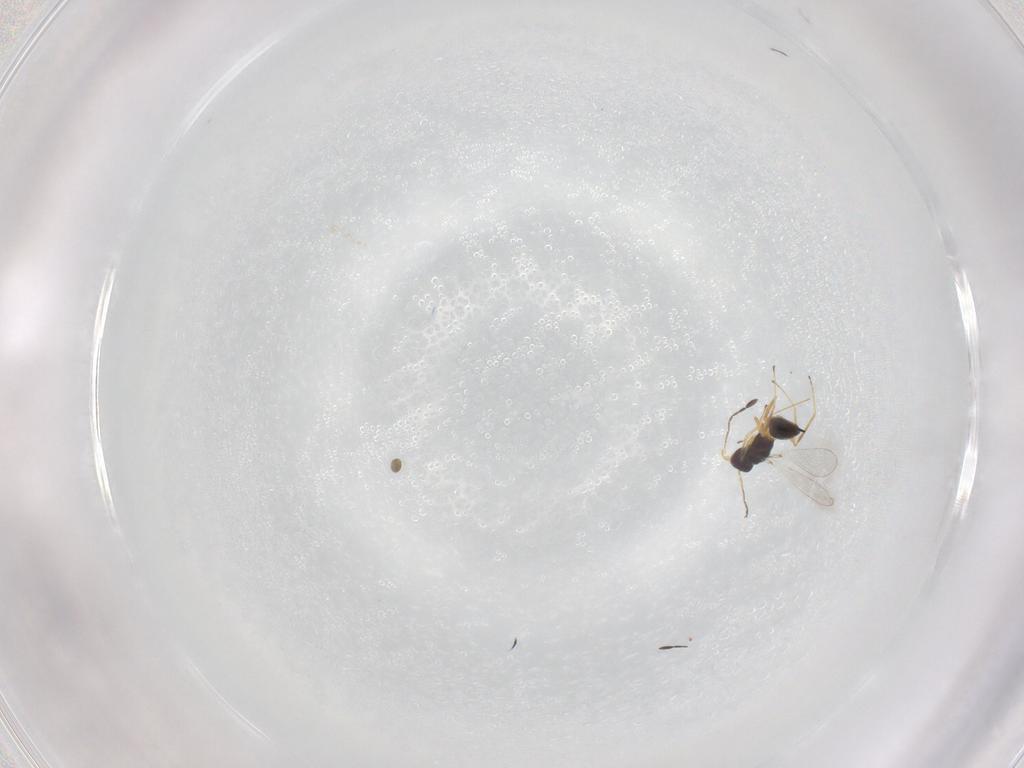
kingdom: Animalia
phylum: Arthropoda
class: Insecta
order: Hymenoptera
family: Mymaridae
